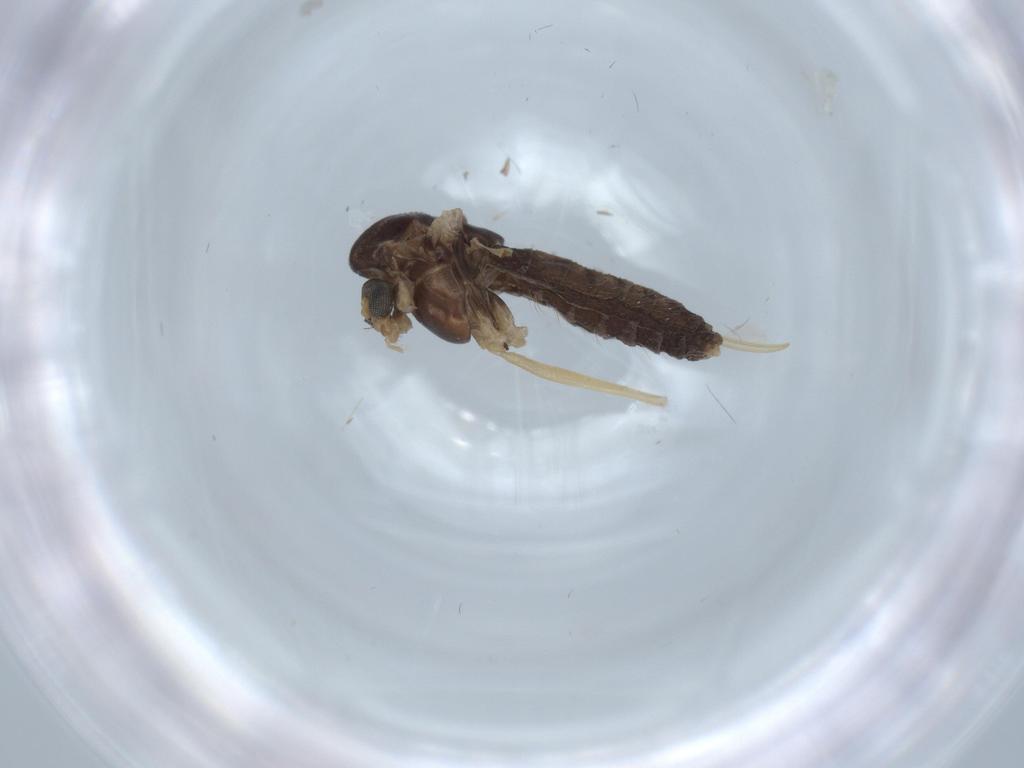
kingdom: Animalia
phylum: Arthropoda
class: Insecta
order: Diptera
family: Chironomidae
